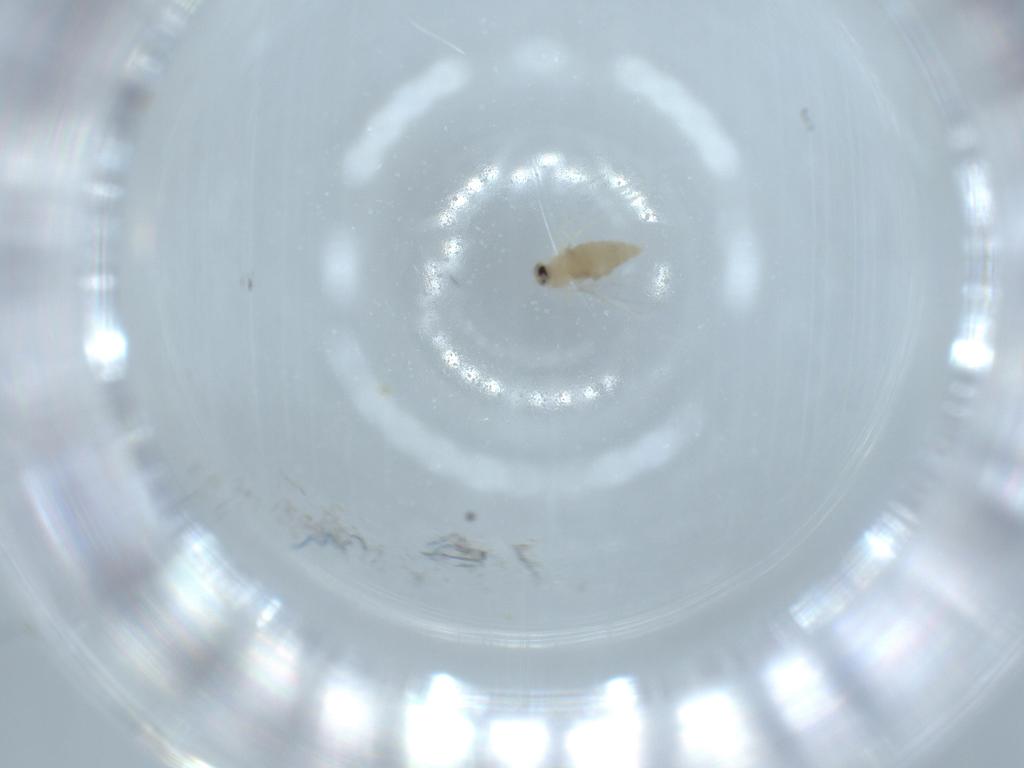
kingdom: Animalia
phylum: Arthropoda
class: Insecta
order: Diptera
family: Cecidomyiidae
